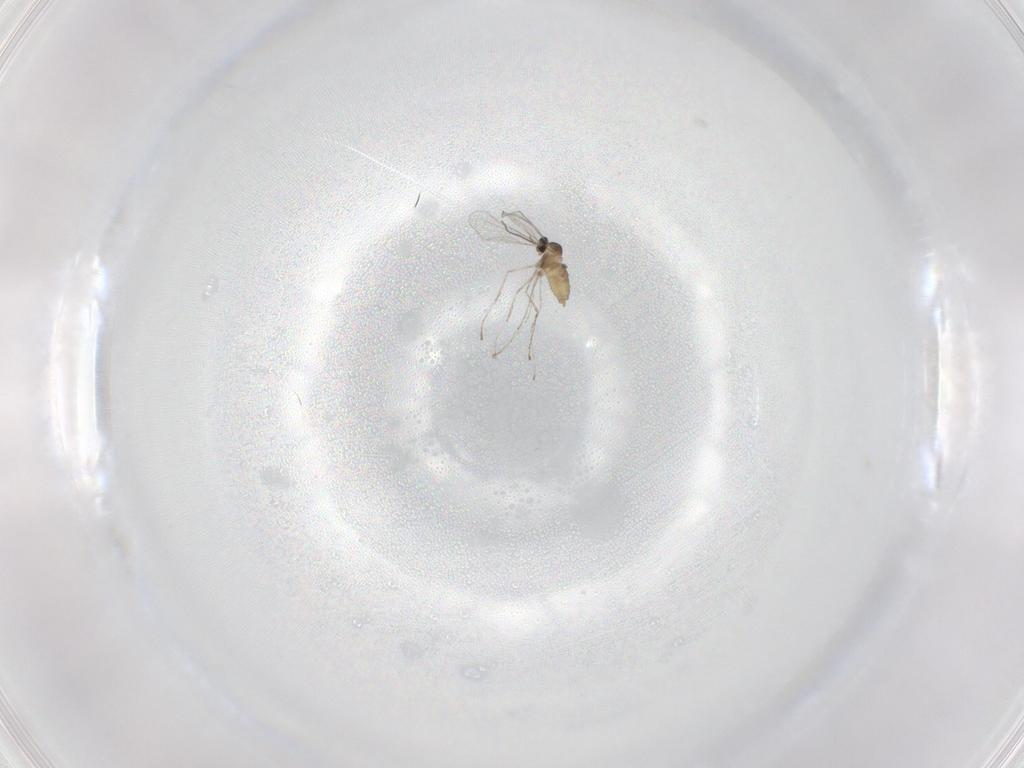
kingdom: Animalia
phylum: Arthropoda
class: Insecta
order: Diptera
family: Cecidomyiidae
